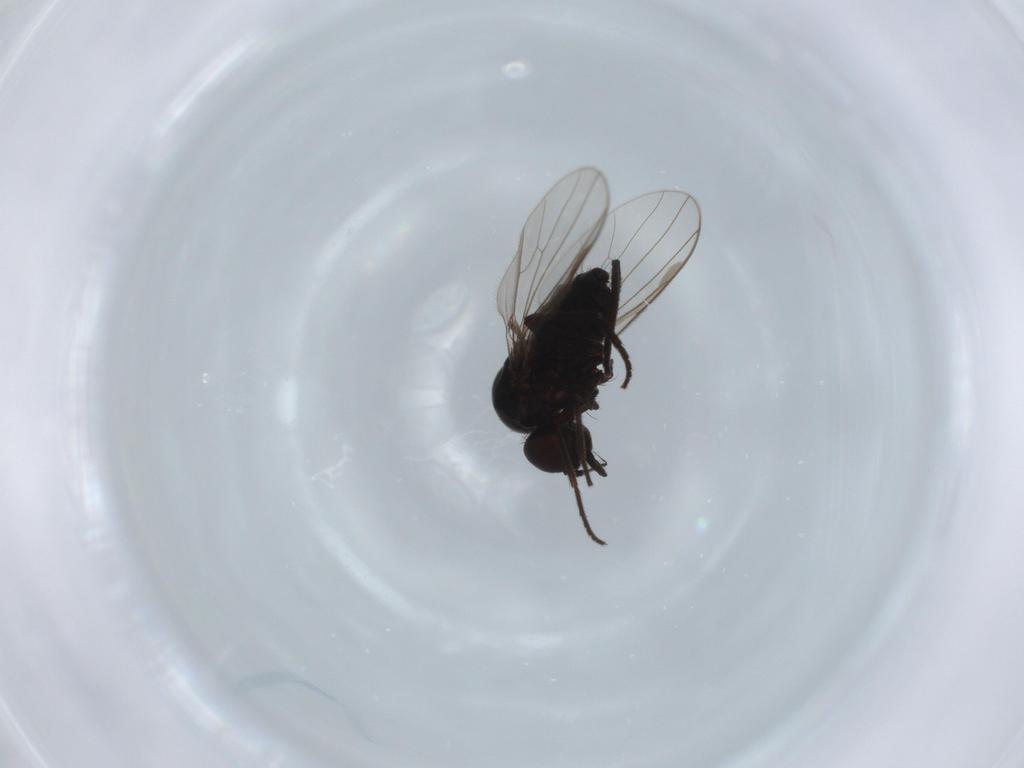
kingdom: Animalia
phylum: Arthropoda
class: Insecta
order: Diptera
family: Dolichopodidae
